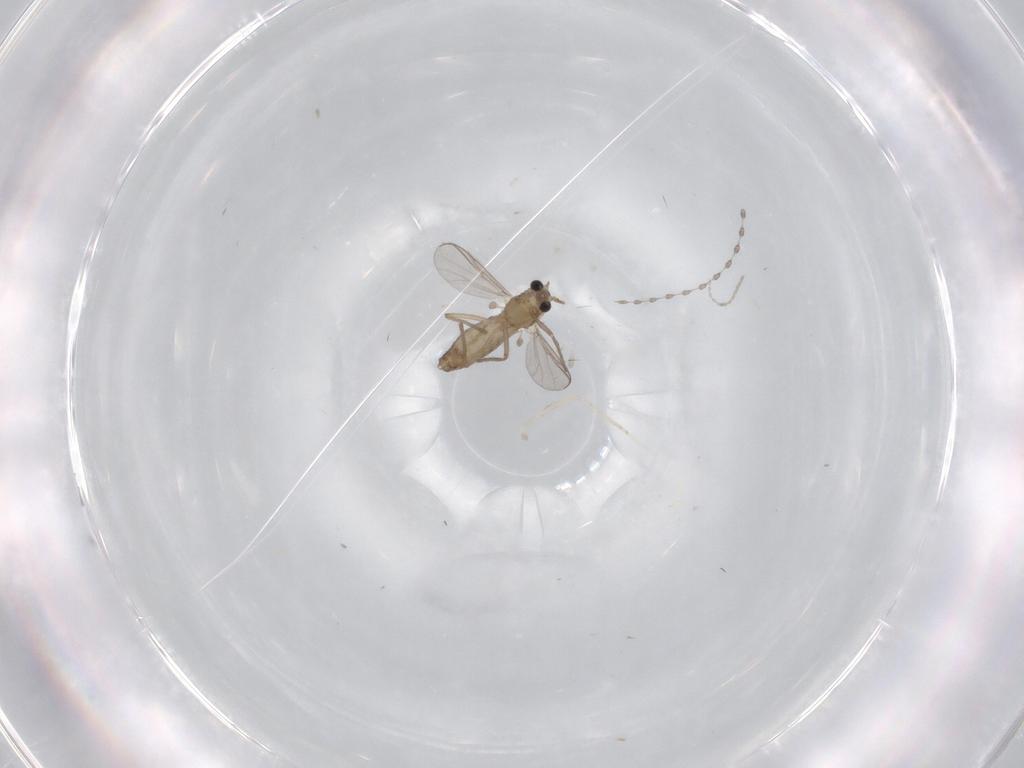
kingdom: Animalia
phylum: Arthropoda
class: Insecta
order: Diptera
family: Chironomidae
